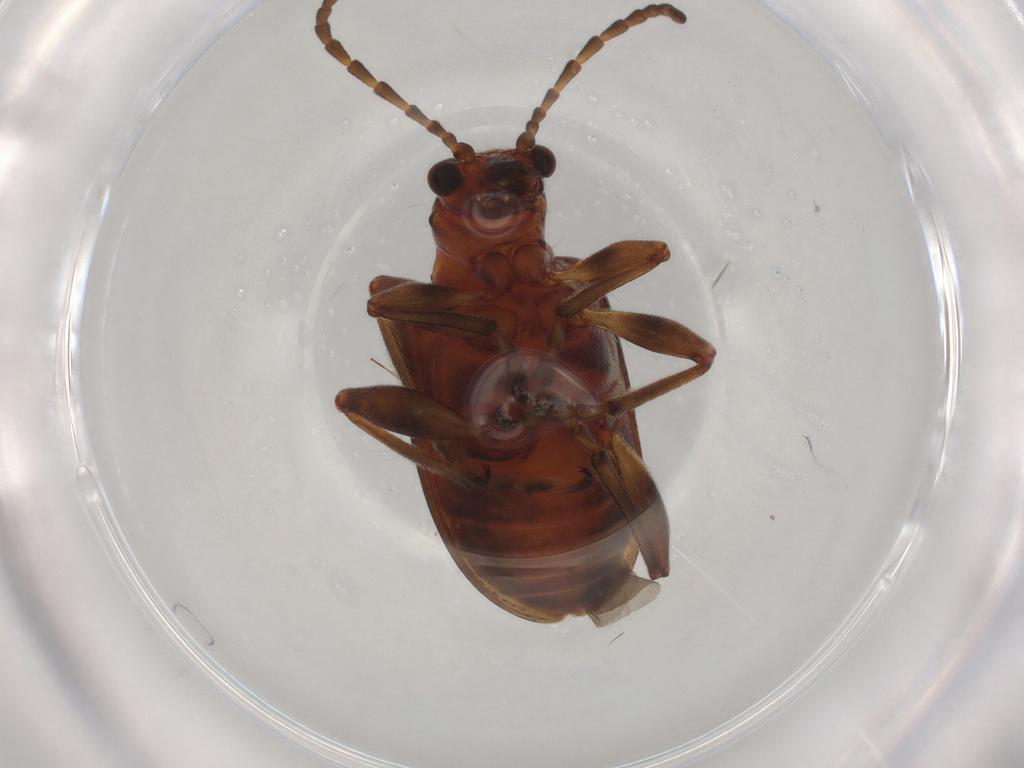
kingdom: Animalia
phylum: Arthropoda
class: Insecta
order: Coleoptera
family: Chrysomelidae
